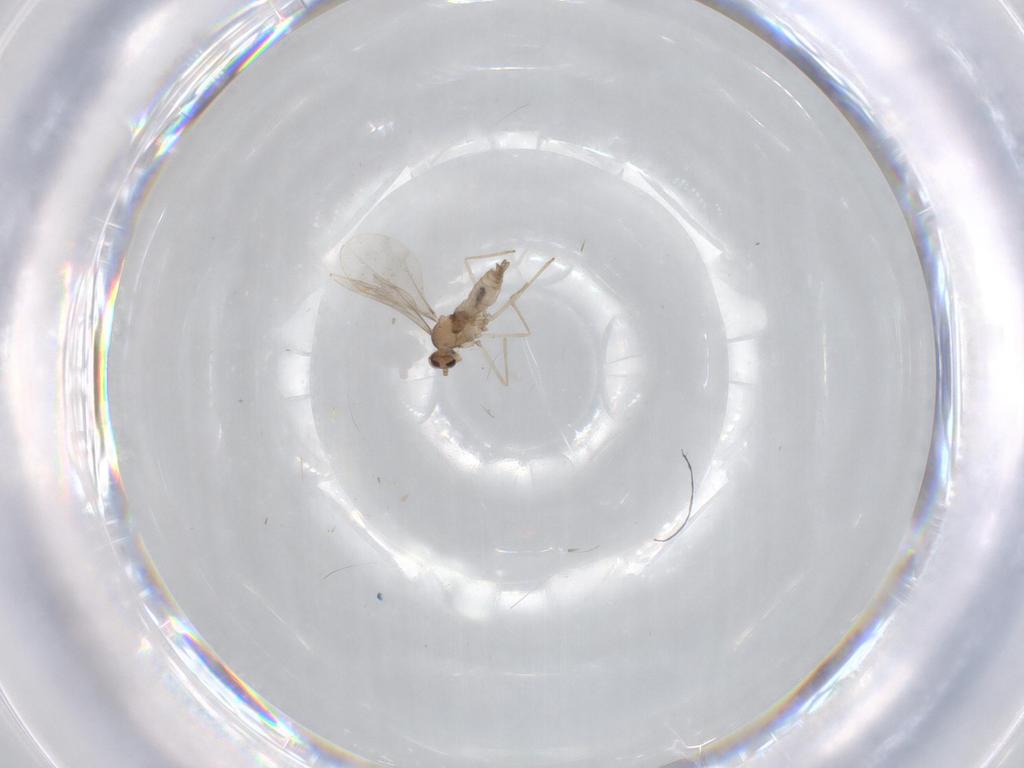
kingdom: Animalia
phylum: Arthropoda
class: Insecta
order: Diptera
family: Cecidomyiidae
